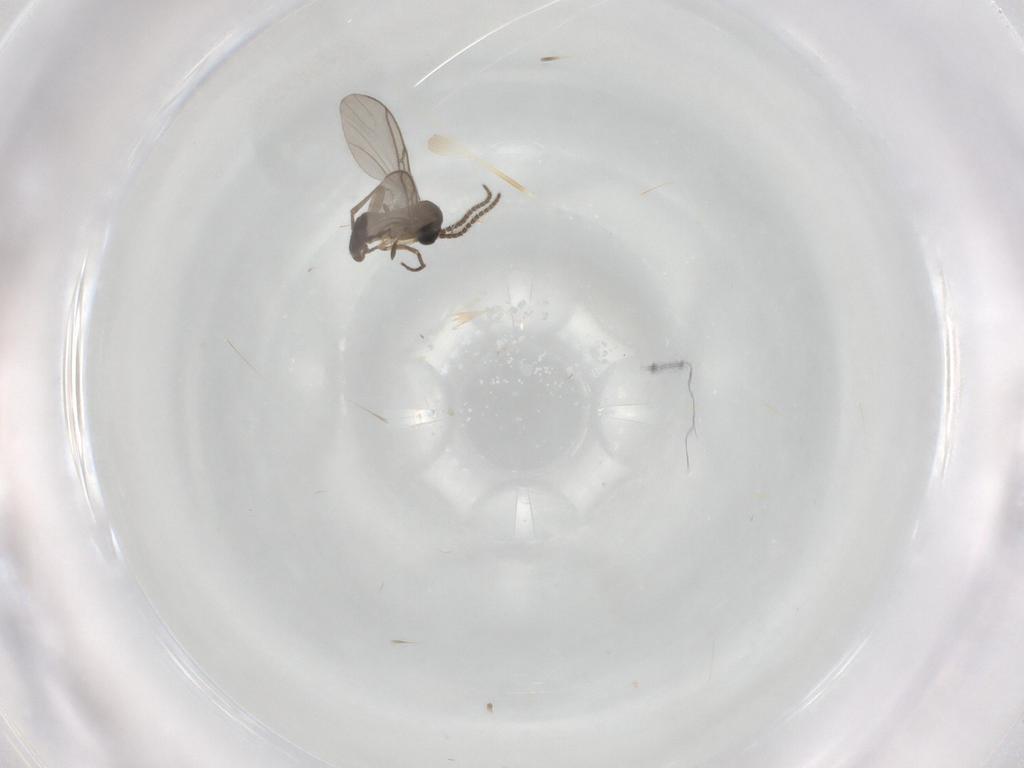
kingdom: Animalia
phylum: Arthropoda
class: Insecta
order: Diptera
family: Sciaridae
